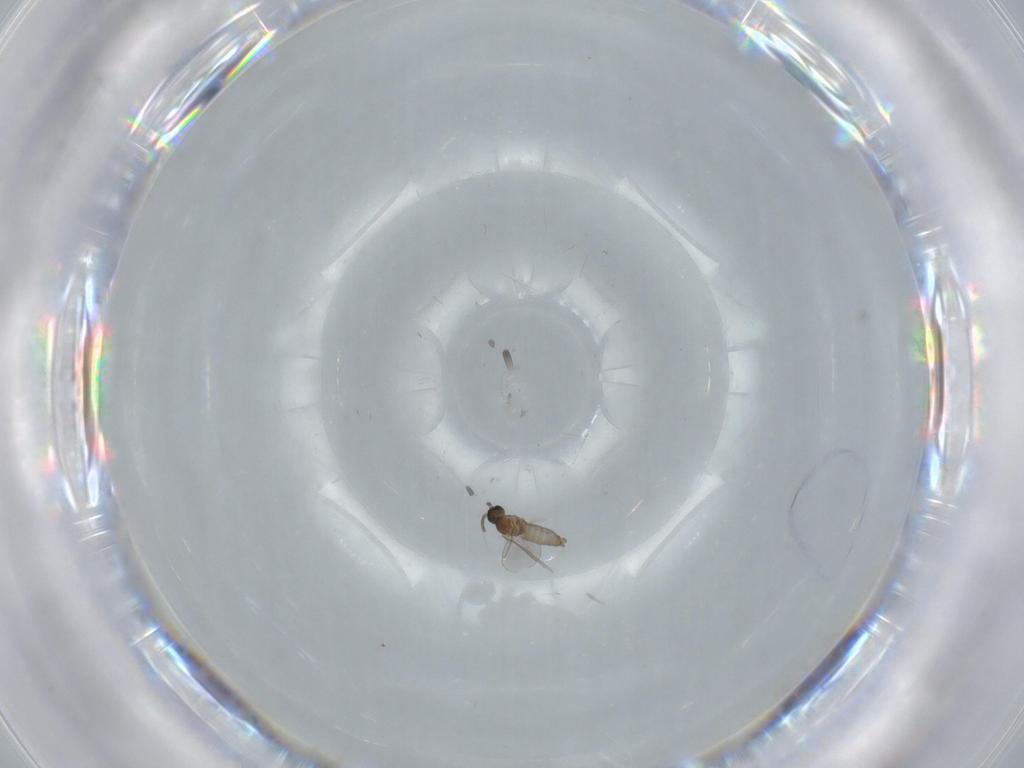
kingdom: Animalia
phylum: Arthropoda
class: Insecta
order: Diptera
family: Cecidomyiidae
